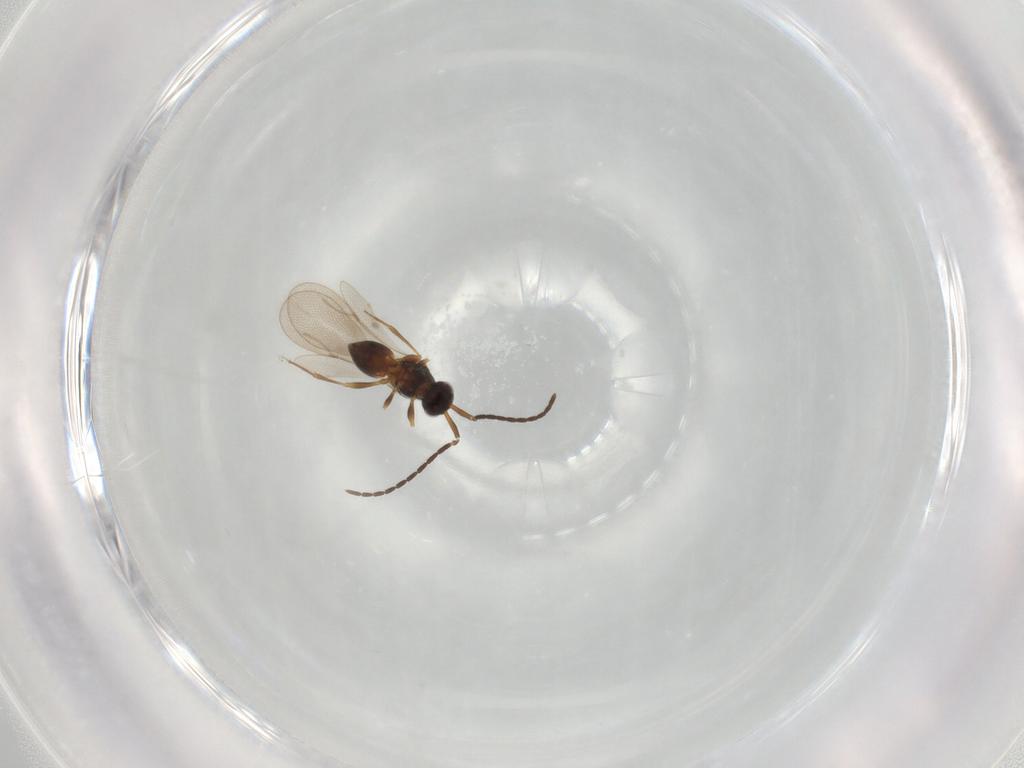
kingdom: Animalia
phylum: Arthropoda
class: Insecta
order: Hymenoptera
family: Ichneumonidae
